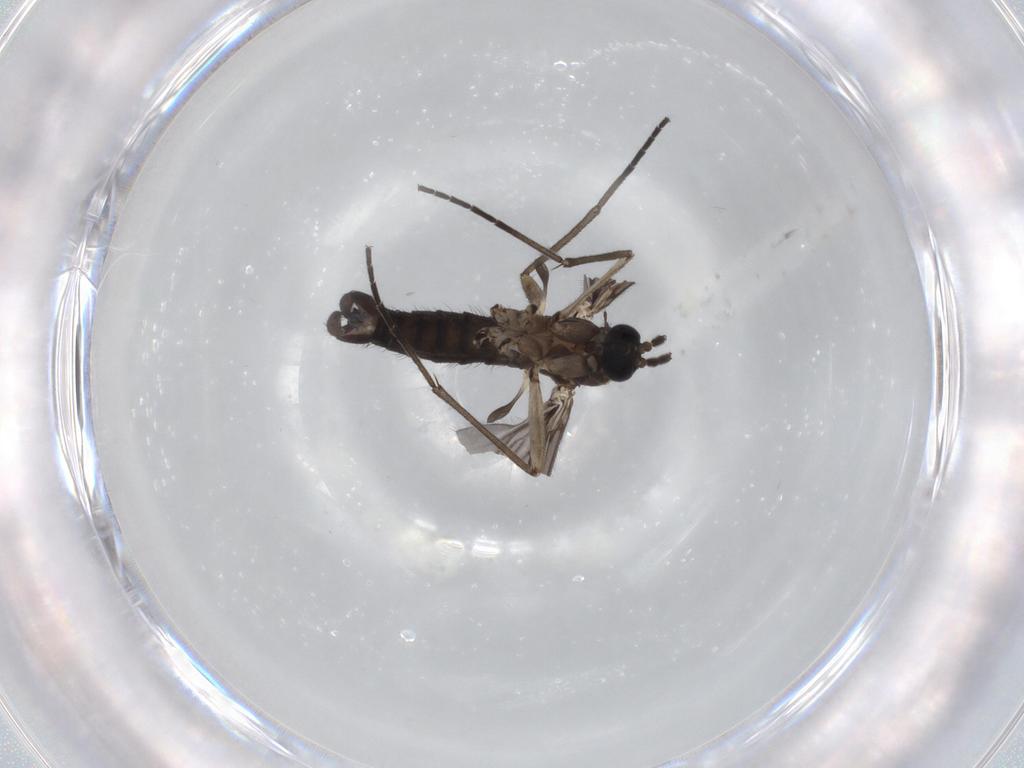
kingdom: Animalia
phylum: Arthropoda
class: Insecta
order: Diptera
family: Sciaridae
